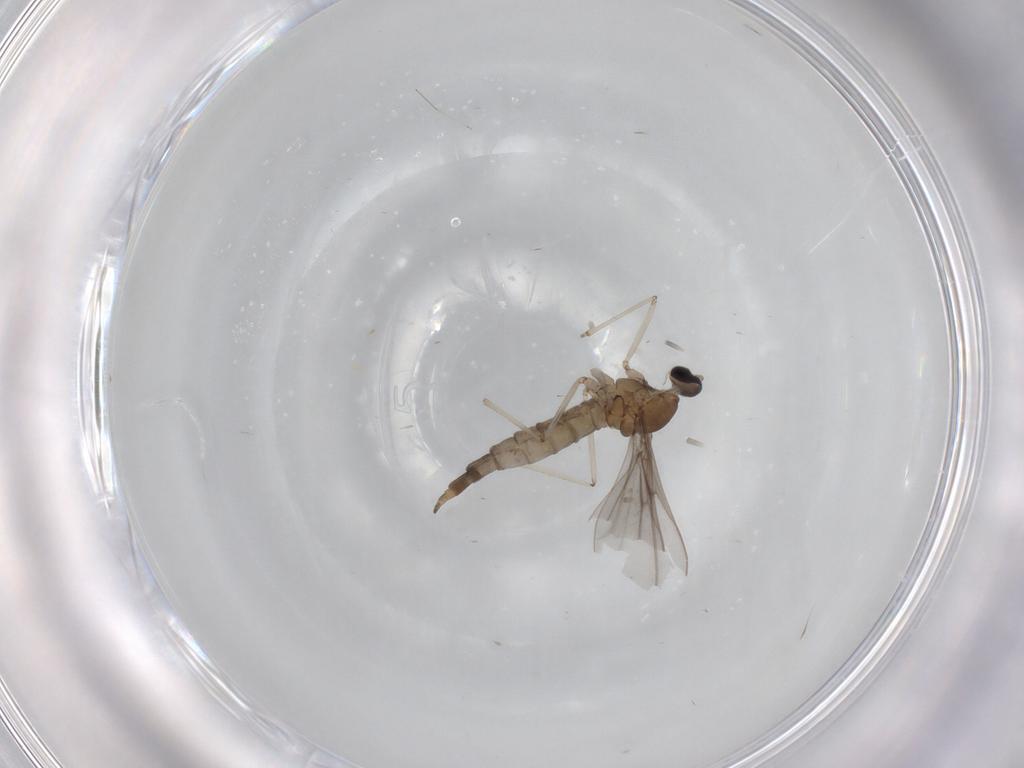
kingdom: Animalia
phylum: Arthropoda
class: Insecta
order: Diptera
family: Cecidomyiidae
